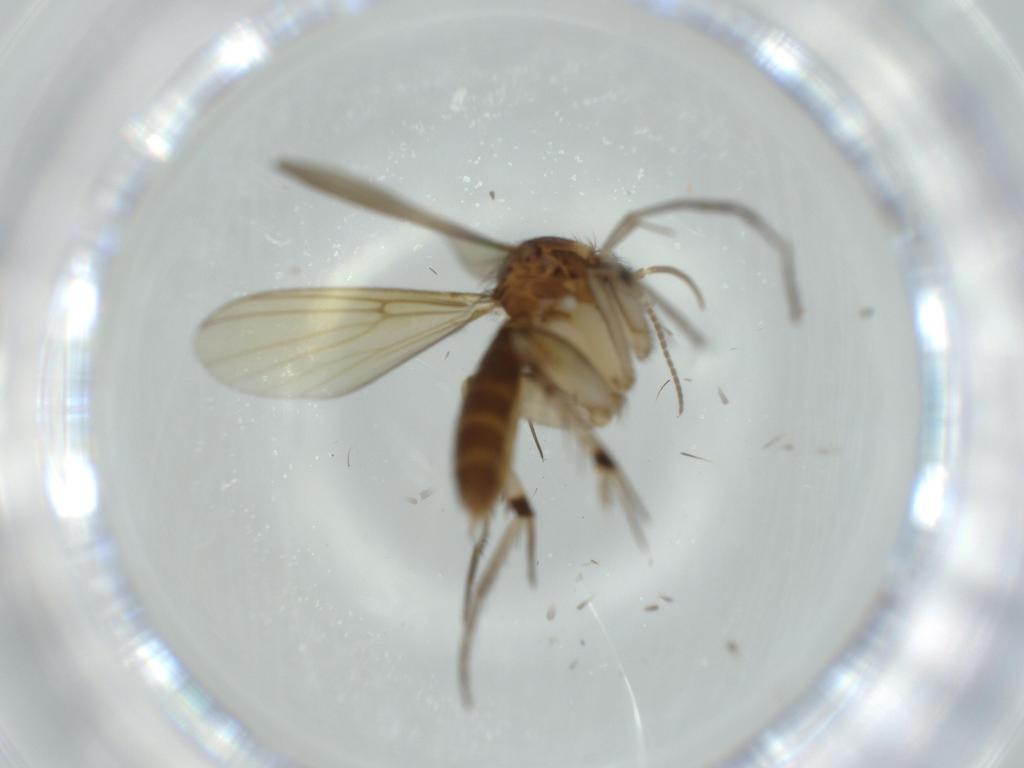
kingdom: Animalia
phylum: Arthropoda
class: Insecta
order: Diptera
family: Mycetophilidae
